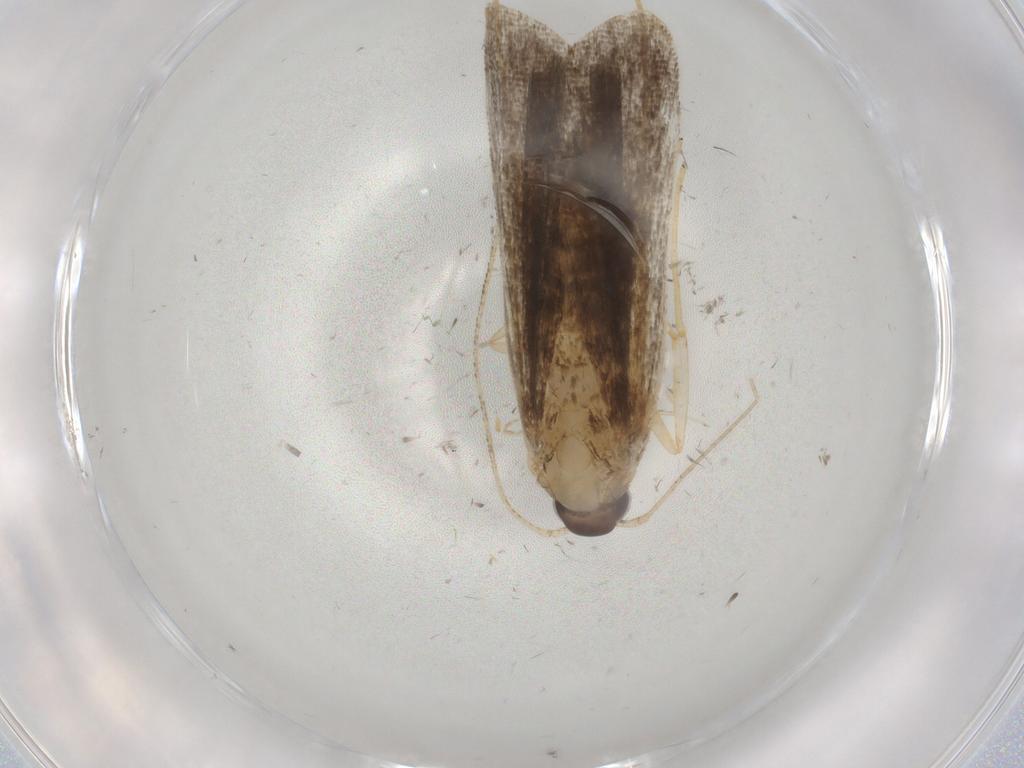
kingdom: Animalia
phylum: Arthropoda
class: Insecta
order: Lepidoptera
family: Cosmopterigidae
